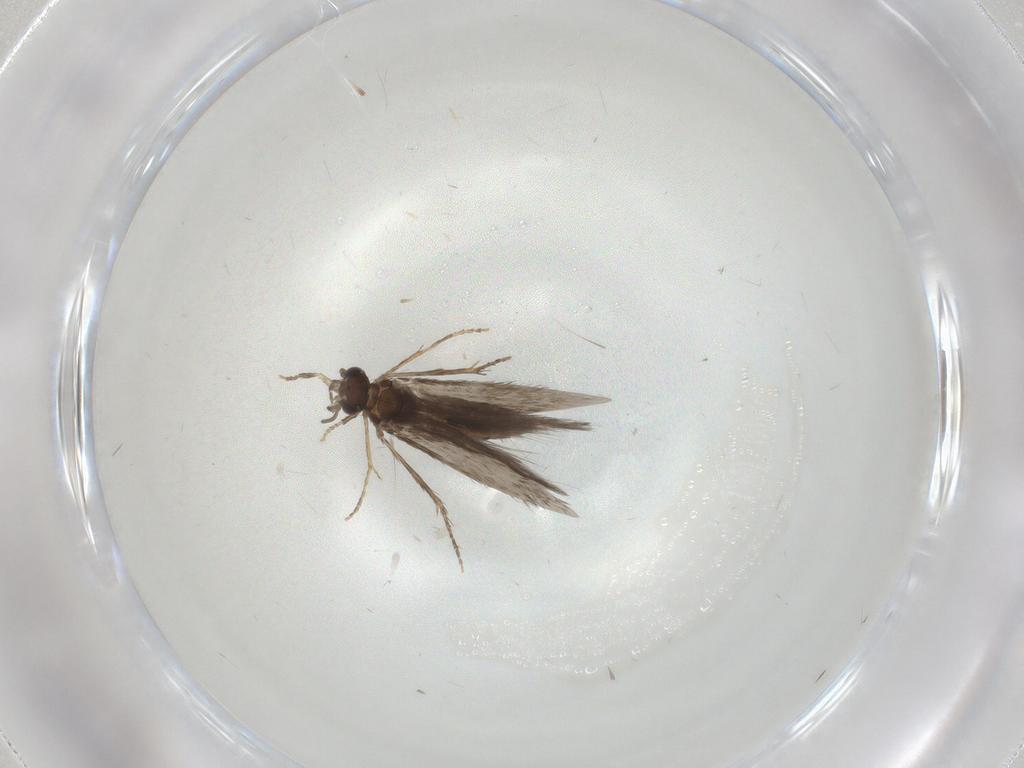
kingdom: Animalia
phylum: Arthropoda
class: Insecta
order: Trichoptera
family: Hydroptilidae
